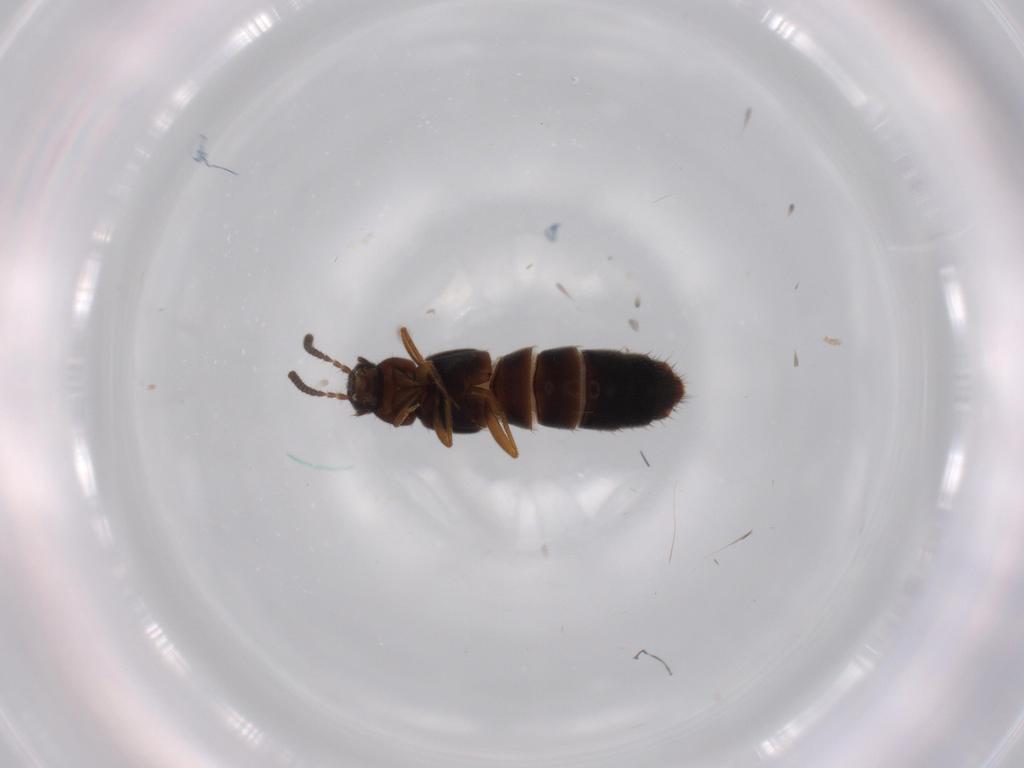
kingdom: Animalia
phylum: Arthropoda
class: Insecta
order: Coleoptera
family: Staphylinidae
